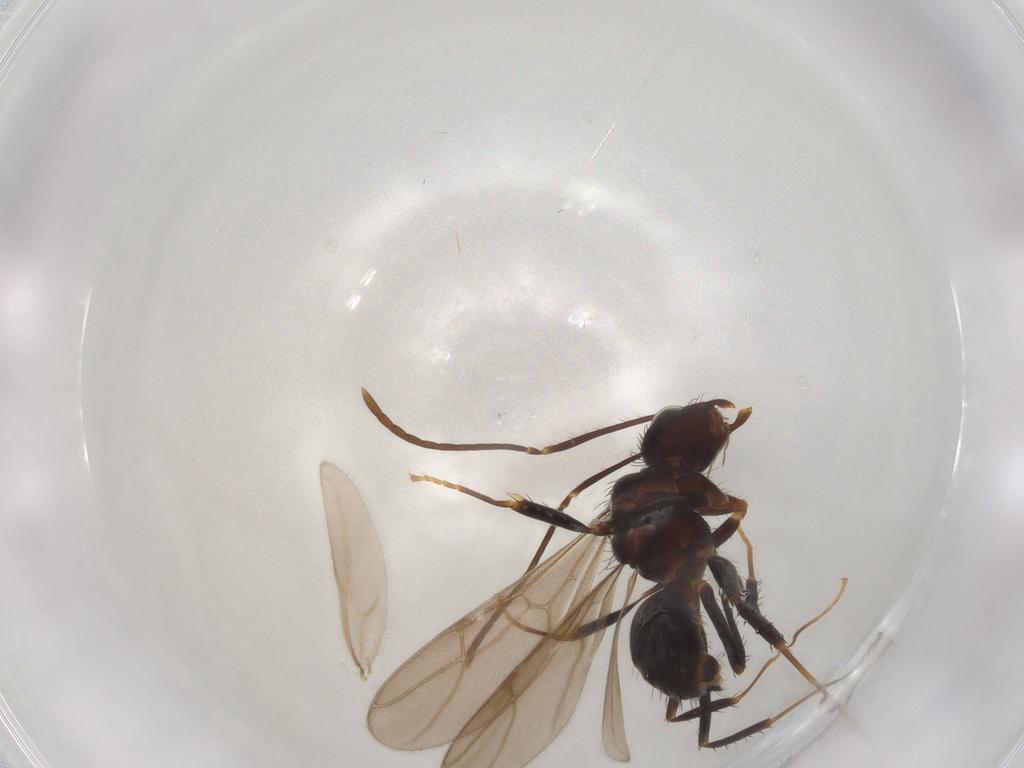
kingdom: Animalia
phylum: Arthropoda
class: Insecta
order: Hymenoptera
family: Formicidae
